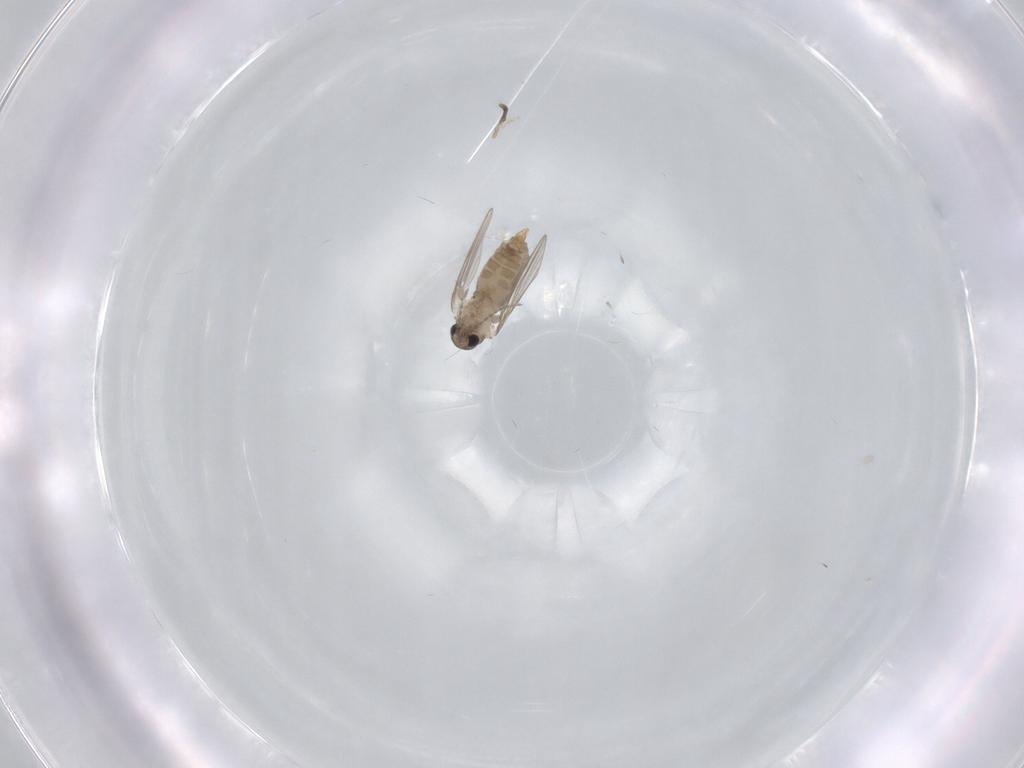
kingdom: Animalia
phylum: Arthropoda
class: Insecta
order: Diptera
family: Psychodidae
